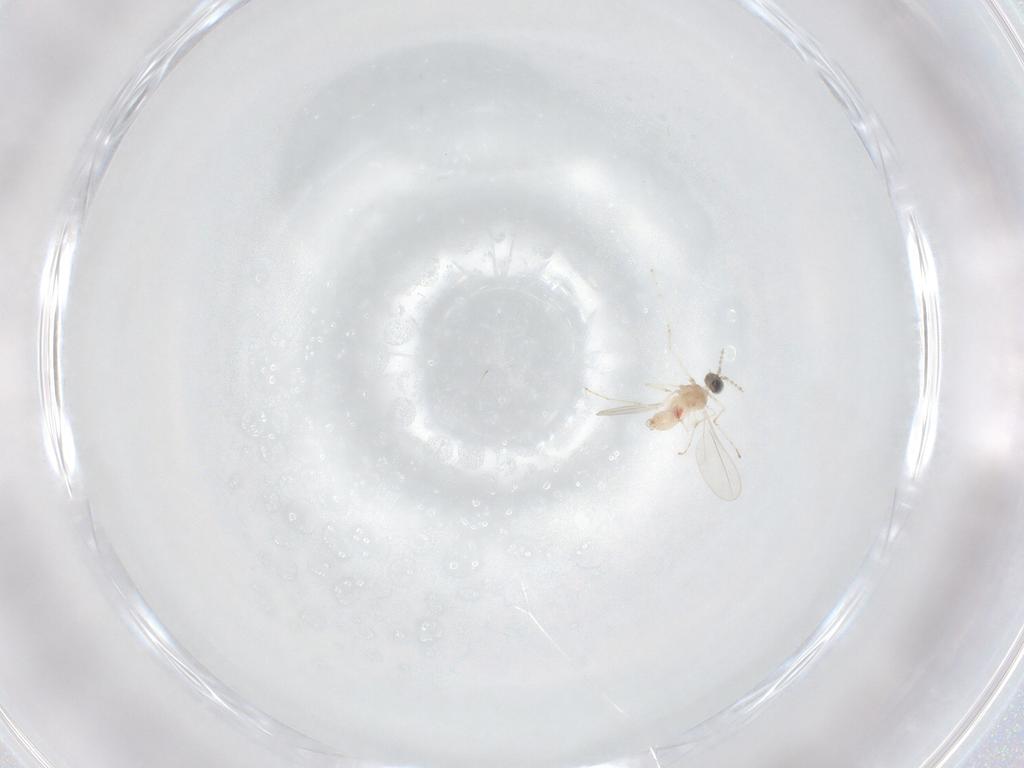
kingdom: Animalia
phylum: Arthropoda
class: Insecta
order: Diptera
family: Cecidomyiidae
